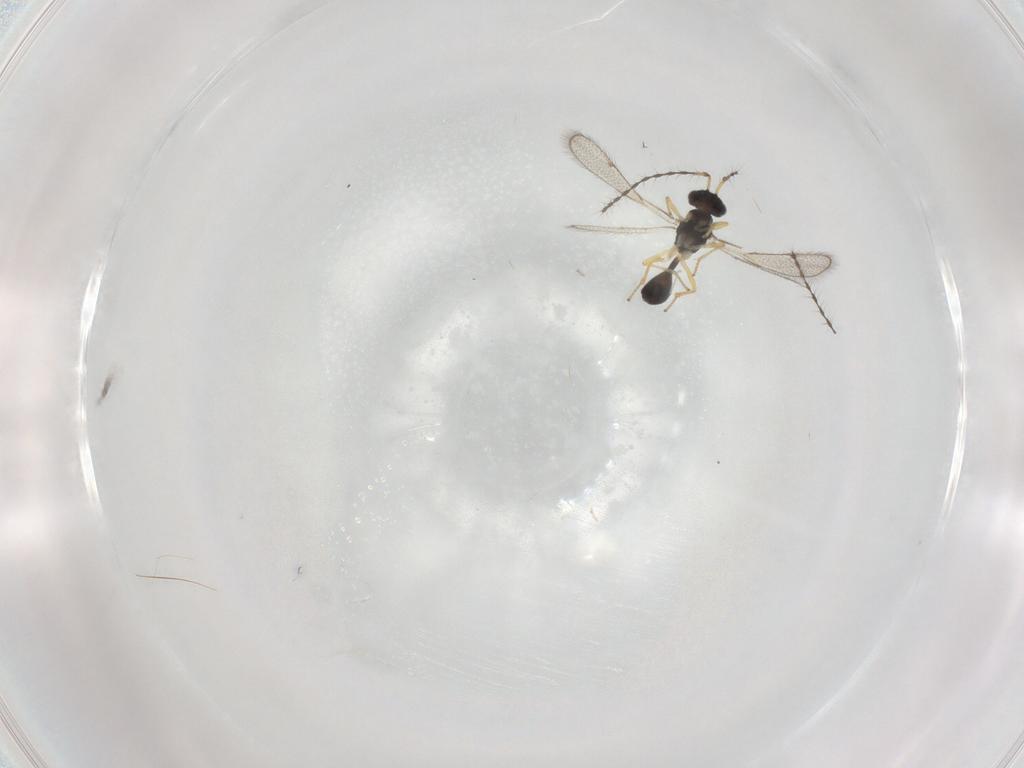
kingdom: Animalia
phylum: Arthropoda
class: Insecta
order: Hymenoptera
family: Diparidae
